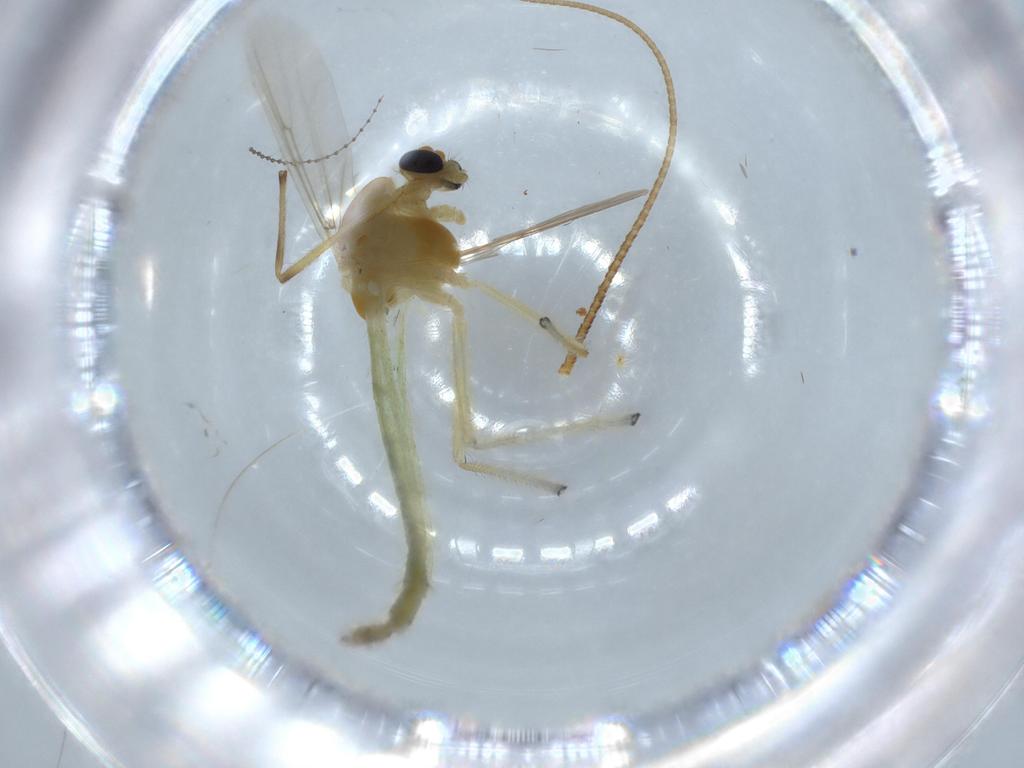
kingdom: Animalia
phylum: Arthropoda
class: Insecta
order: Diptera
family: Chironomidae
